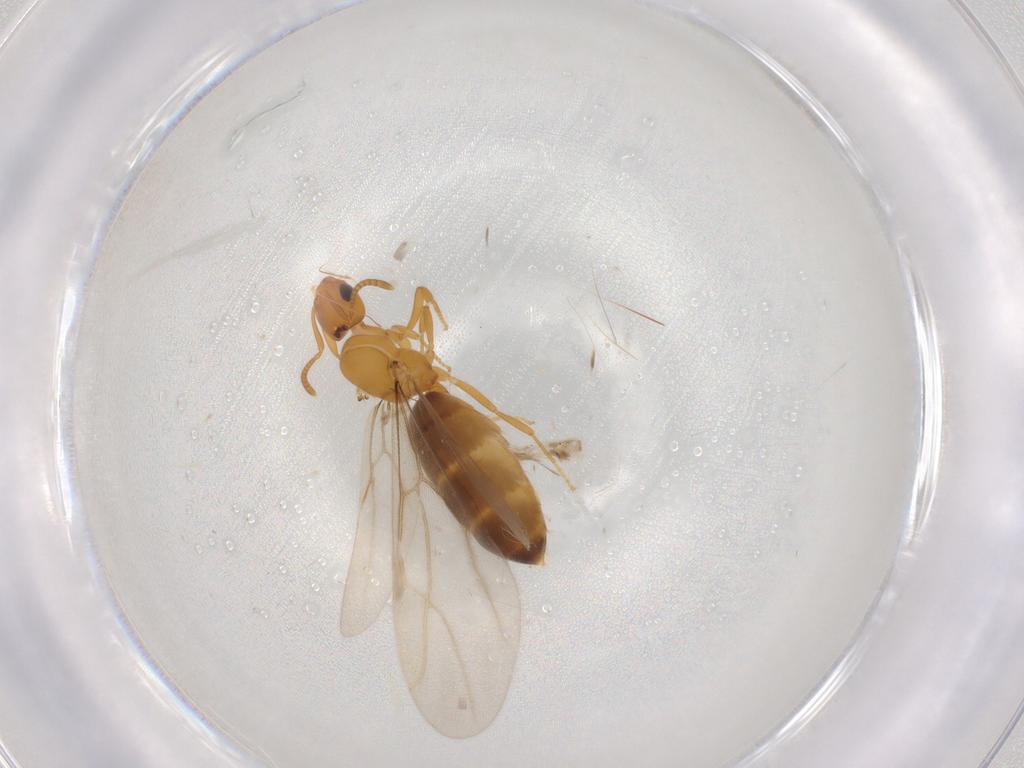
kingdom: Animalia
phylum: Arthropoda
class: Insecta
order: Hymenoptera
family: Formicidae
